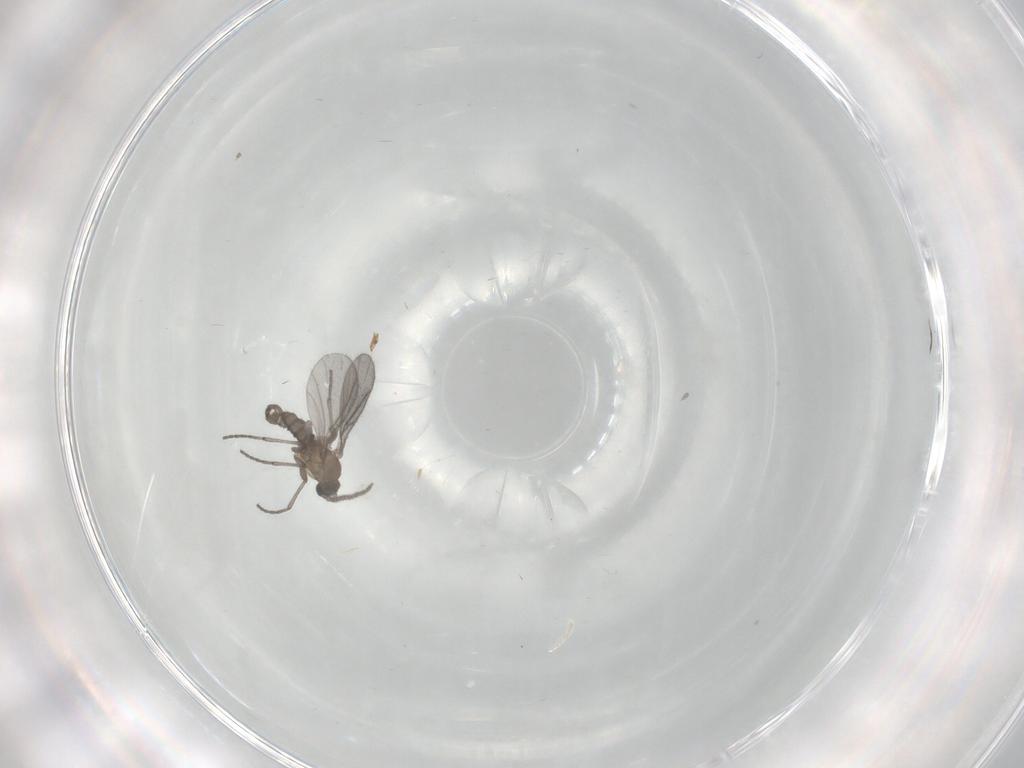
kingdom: Animalia
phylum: Arthropoda
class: Insecta
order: Diptera
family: Sciaridae
